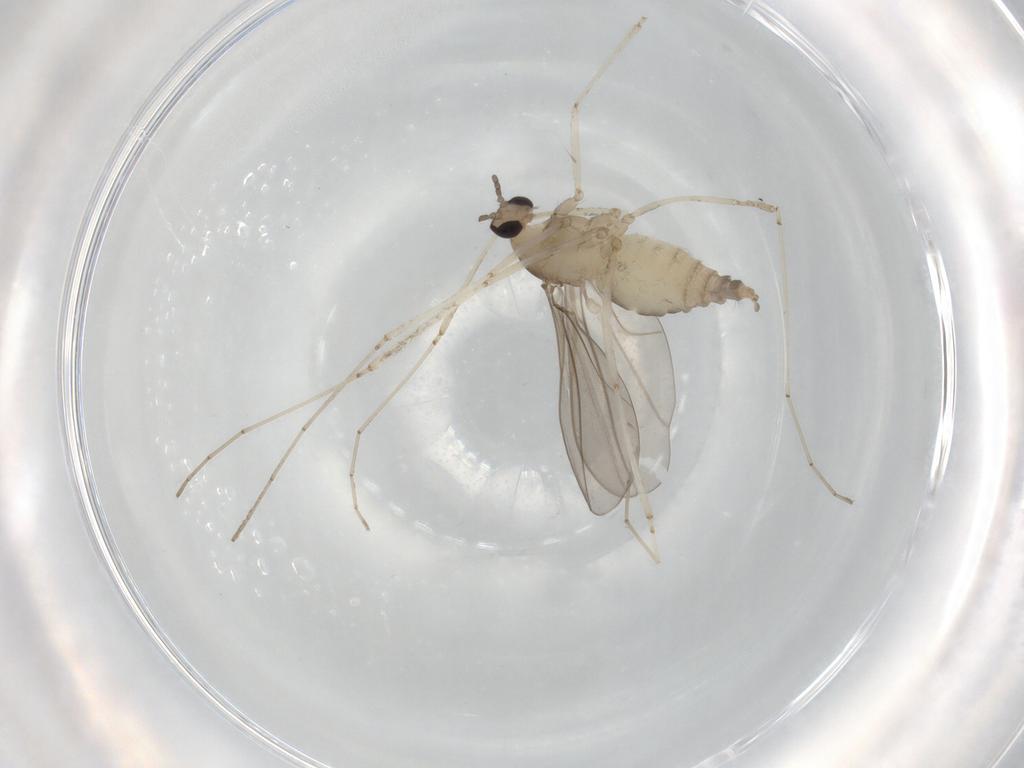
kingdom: Animalia
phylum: Arthropoda
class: Insecta
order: Diptera
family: Cecidomyiidae
